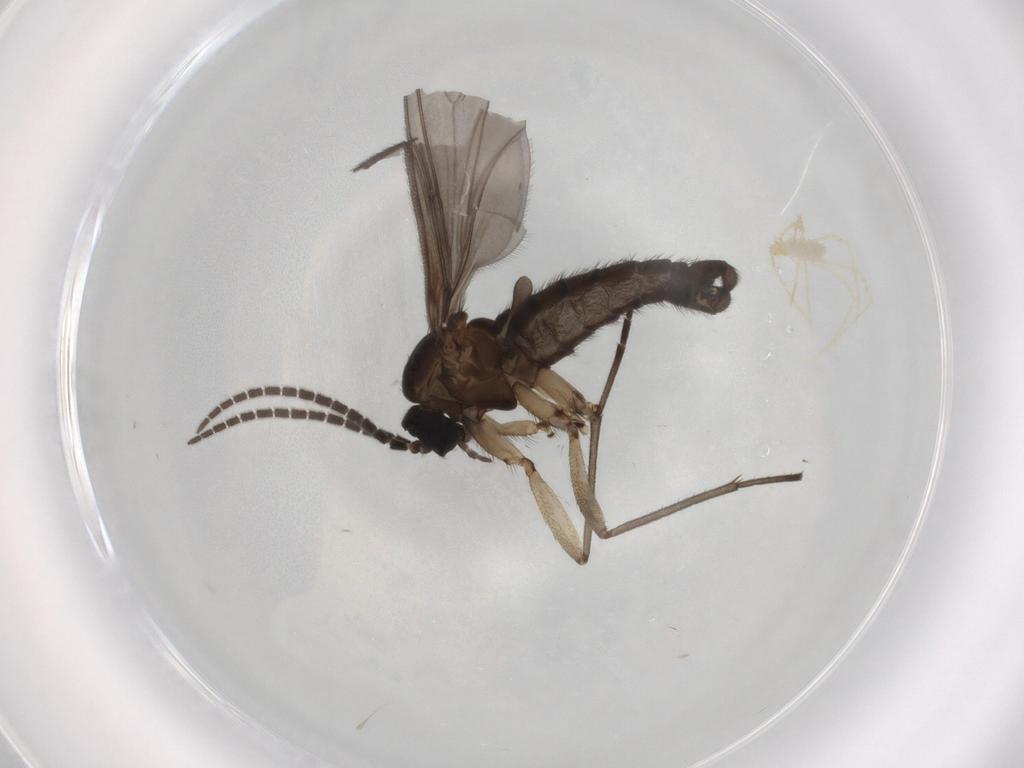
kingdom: Animalia
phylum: Arthropoda
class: Insecta
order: Diptera
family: Sciaridae
